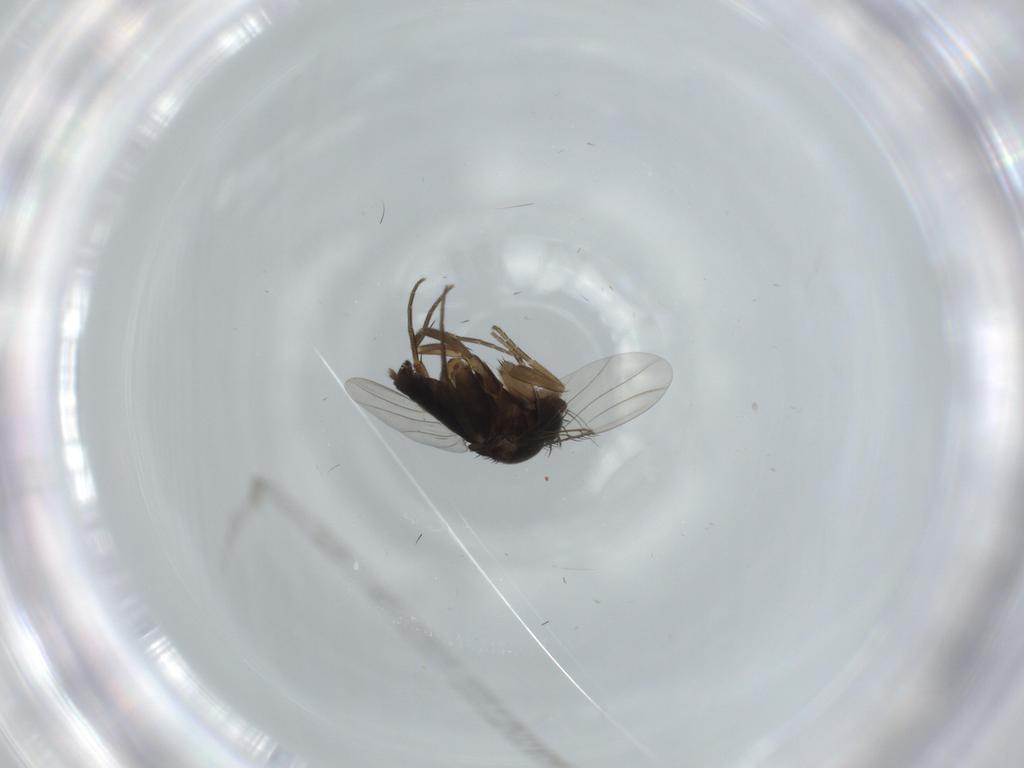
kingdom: Animalia
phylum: Arthropoda
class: Insecta
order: Diptera
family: Phoridae
